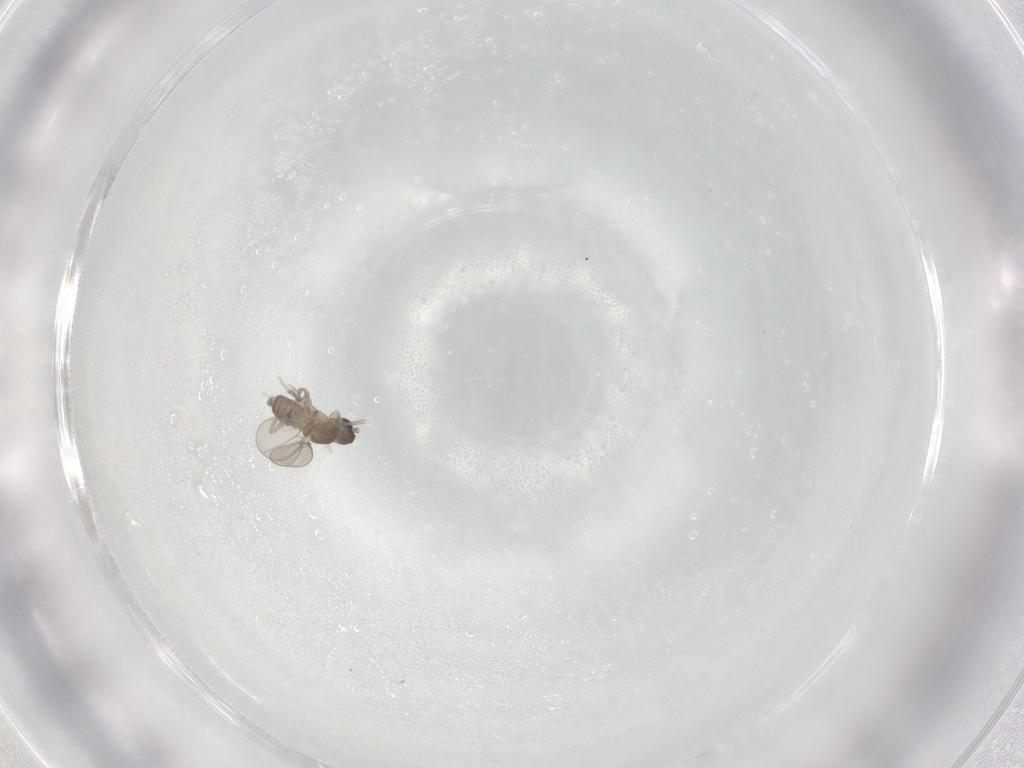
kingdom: Animalia
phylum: Arthropoda
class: Insecta
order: Diptera
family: Cecidomyiidae
